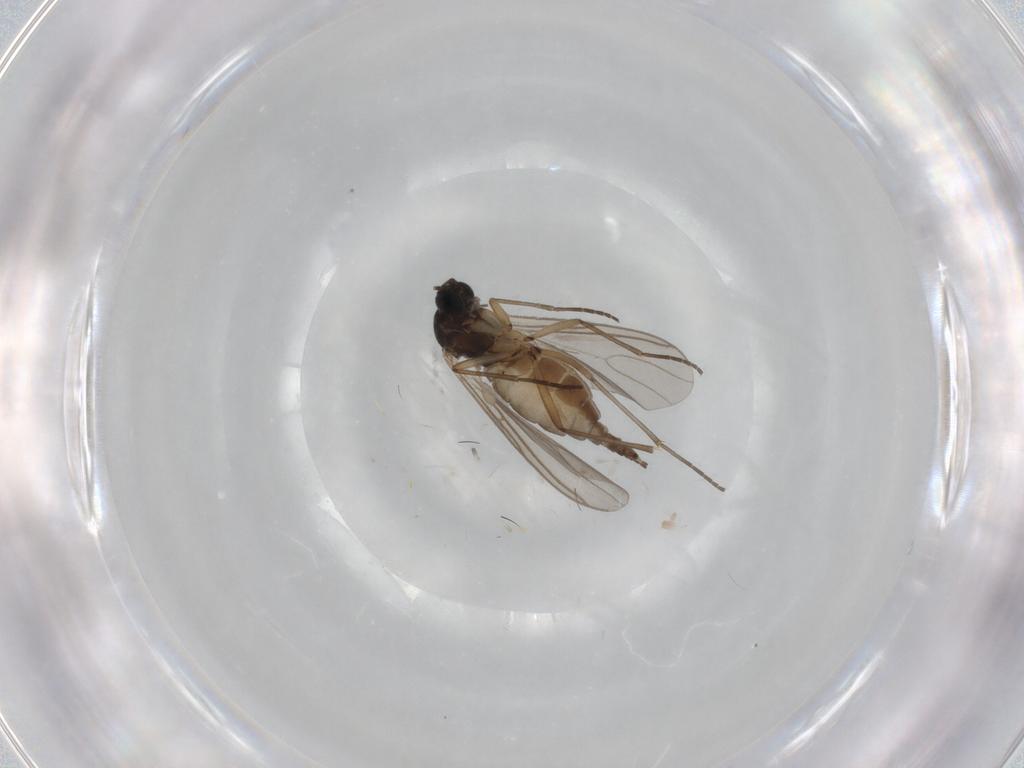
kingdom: Animalia
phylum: Arthropoda
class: Insecta
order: Diptera
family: Sciaridae
